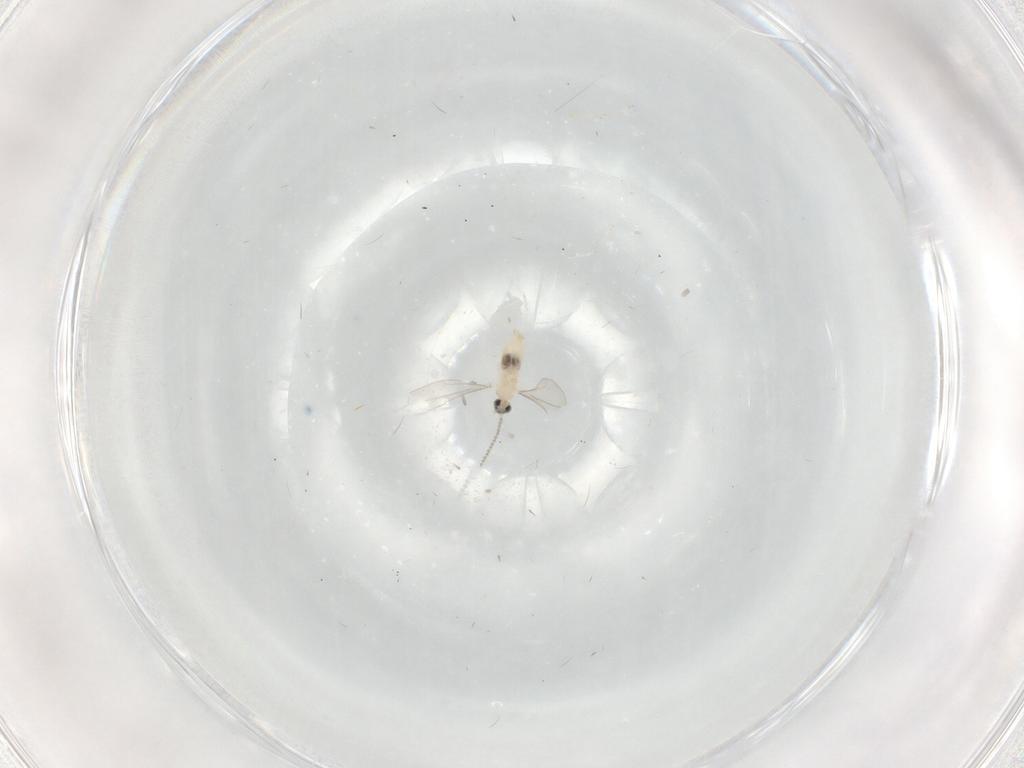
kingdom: Animalia
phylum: Arthropoda
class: Insecta
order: Diptera
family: Cecidomyiidae
